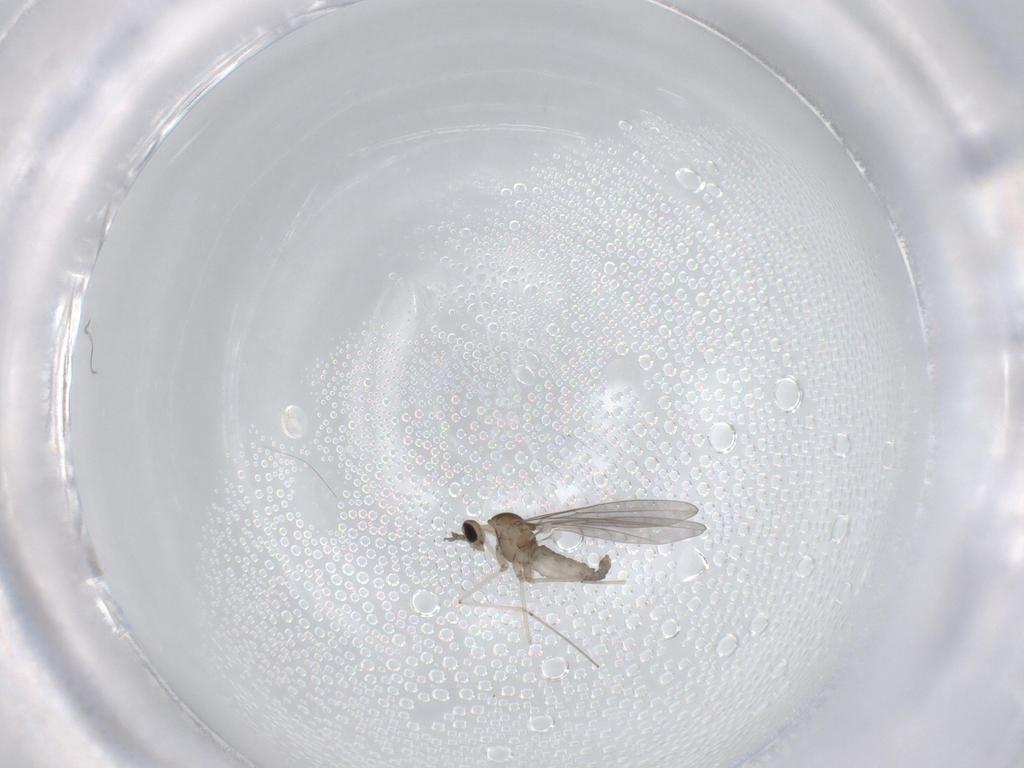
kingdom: Animalia
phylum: Arthropoda
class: Insecta
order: Diptera
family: Cecidomyiidae
